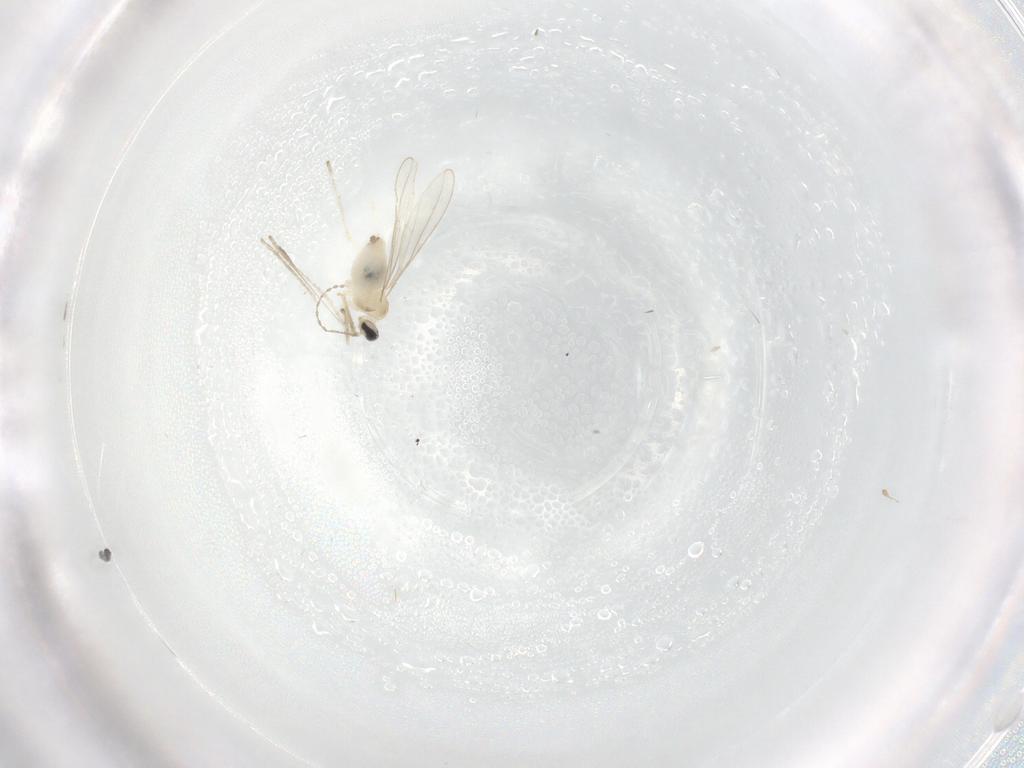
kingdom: Animalia
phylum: Arthropoda
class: Insecta
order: Diptera
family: Cecidomyiidae
